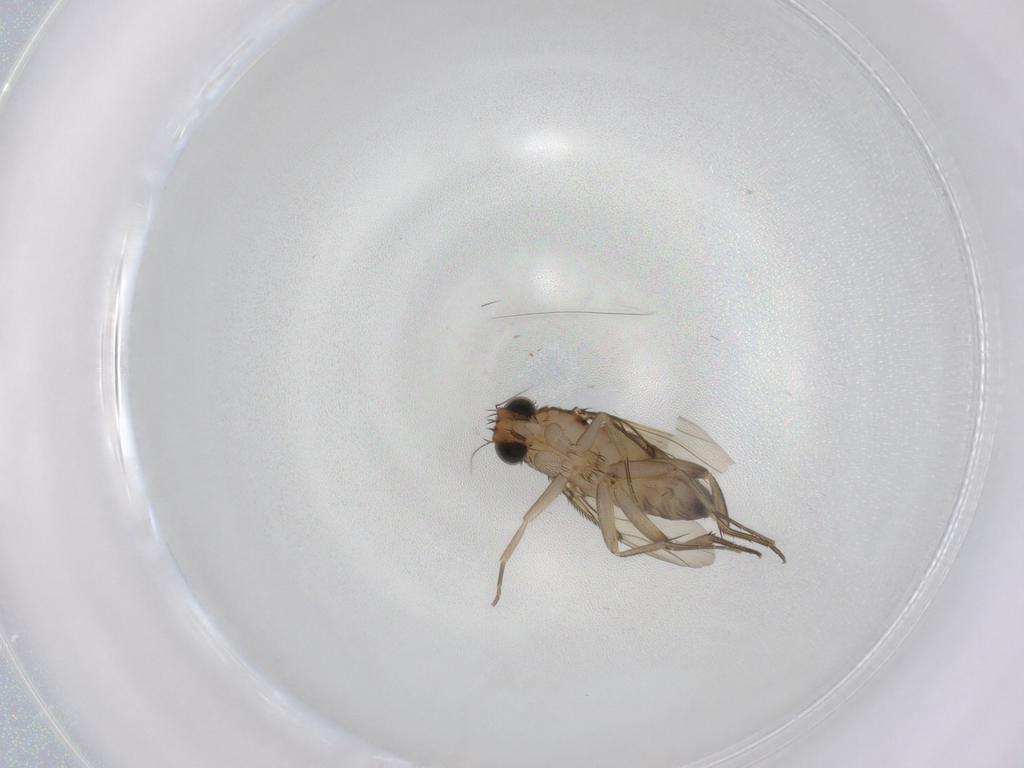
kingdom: Animalia
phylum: Arthropoda
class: Insecta
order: Diptera
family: Phoridae
